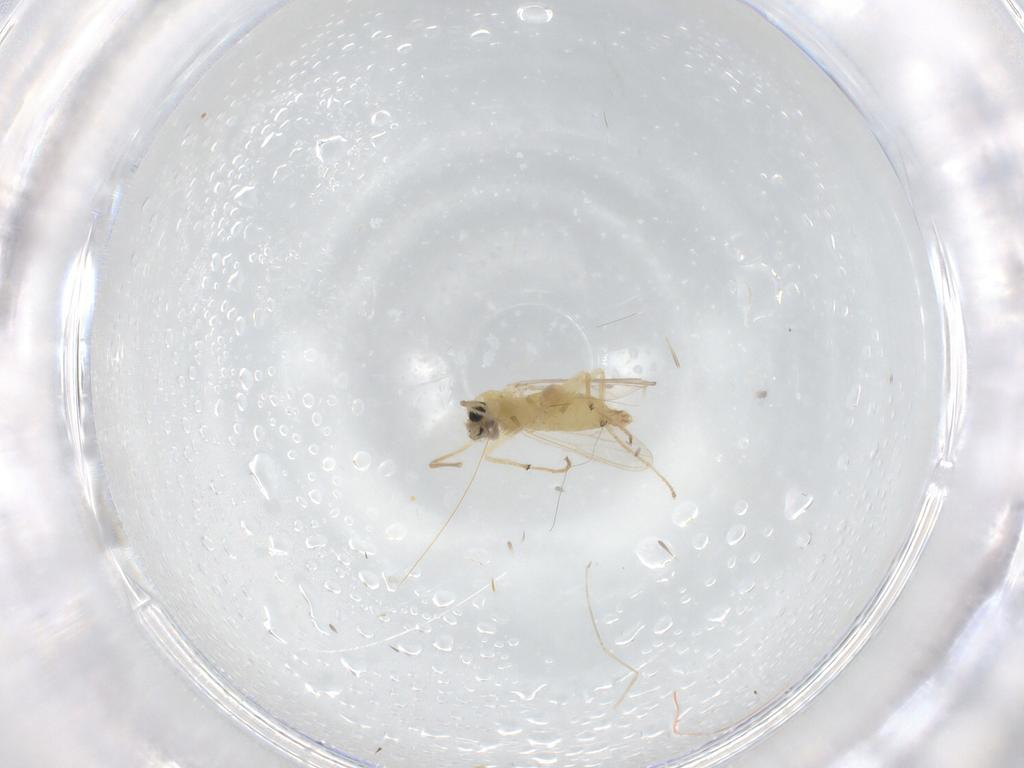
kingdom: Animalia
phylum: Arthropoda
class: Insecta
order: Diptera
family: Chironomidae
